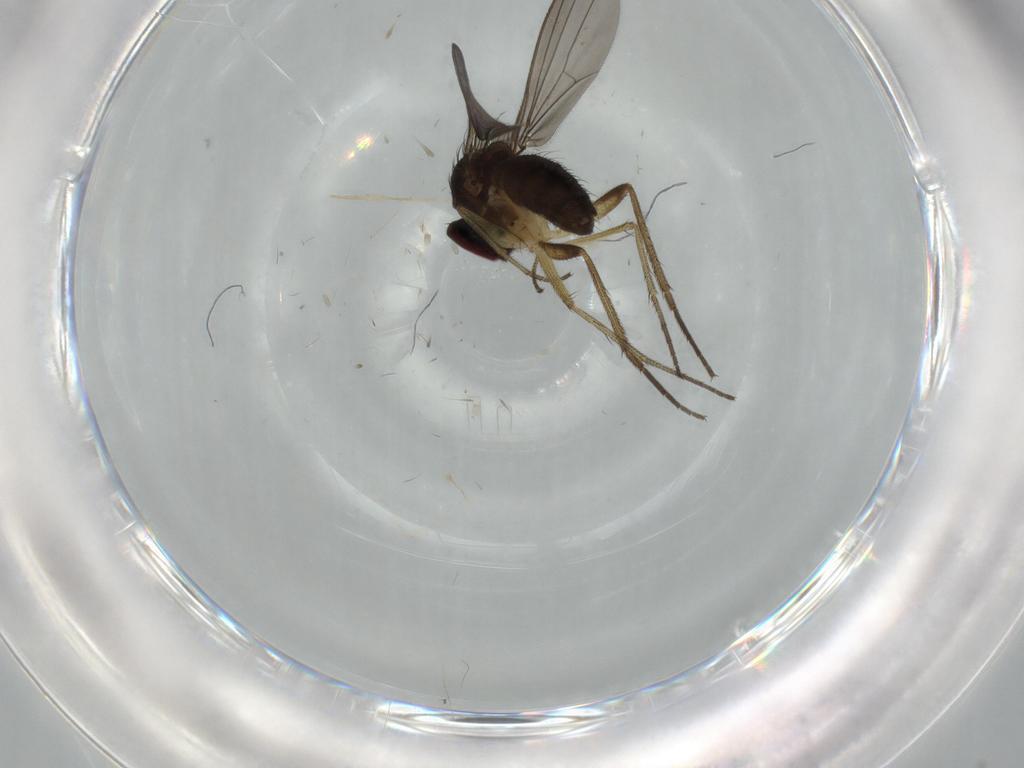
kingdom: Animalia
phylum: Arthropoda
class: Insecta
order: Diptera
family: Dolichopodidae
